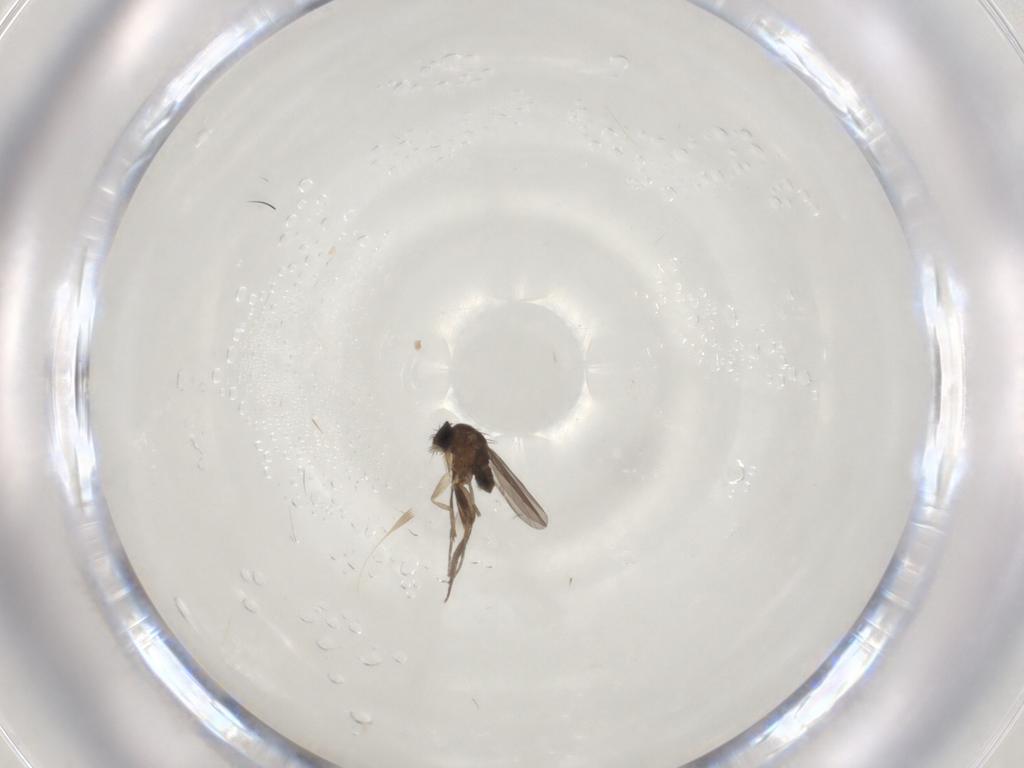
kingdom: Animalia
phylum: Arthropoda
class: Insecta
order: Diptera
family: Phoridae
